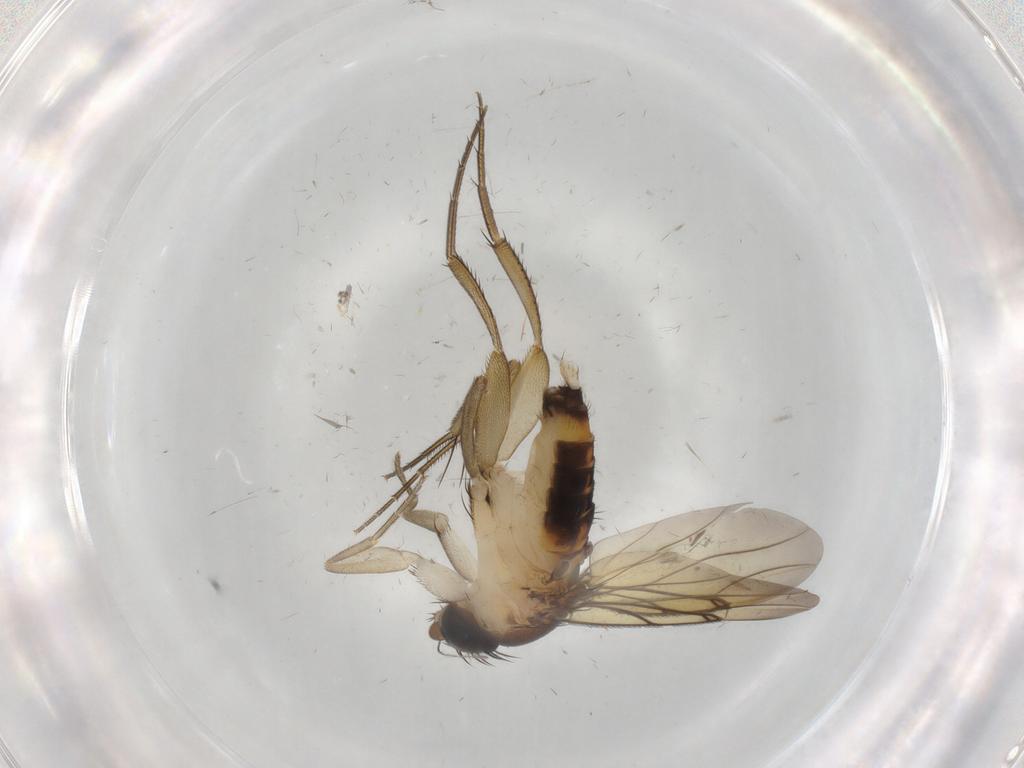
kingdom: Animalia
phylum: Arthropoda
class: Insecta
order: Diptera
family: Sciaridae
